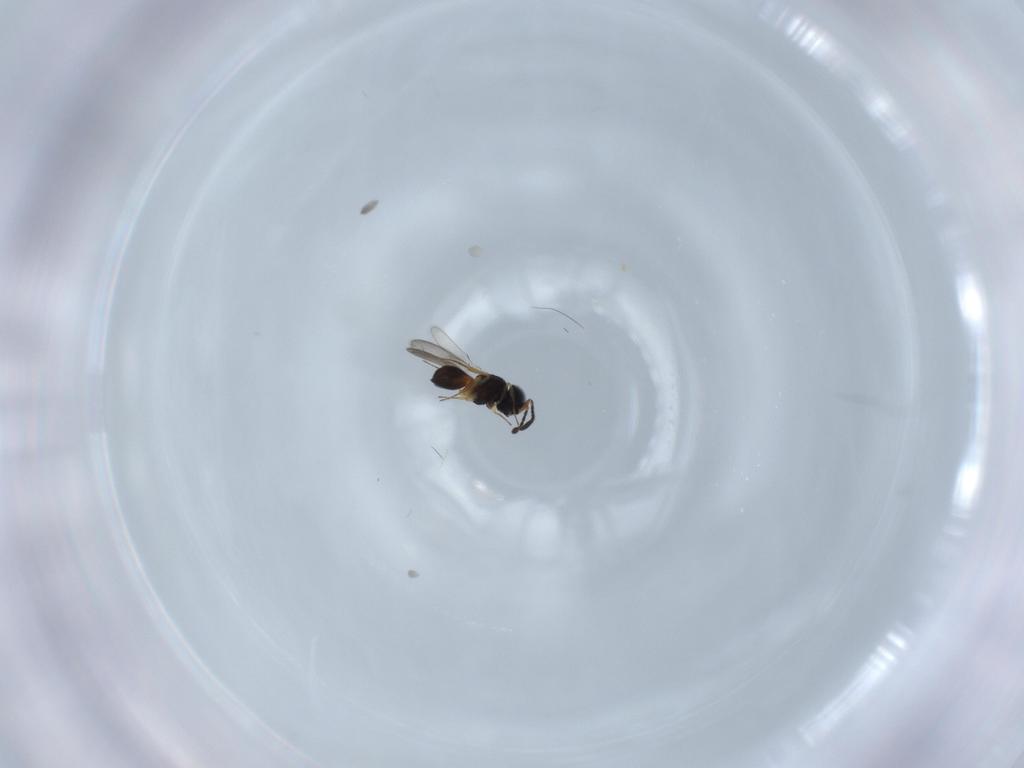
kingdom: Animalia
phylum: Arthropoda
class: Insecta
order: Hymenoptera
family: Scelionidae
